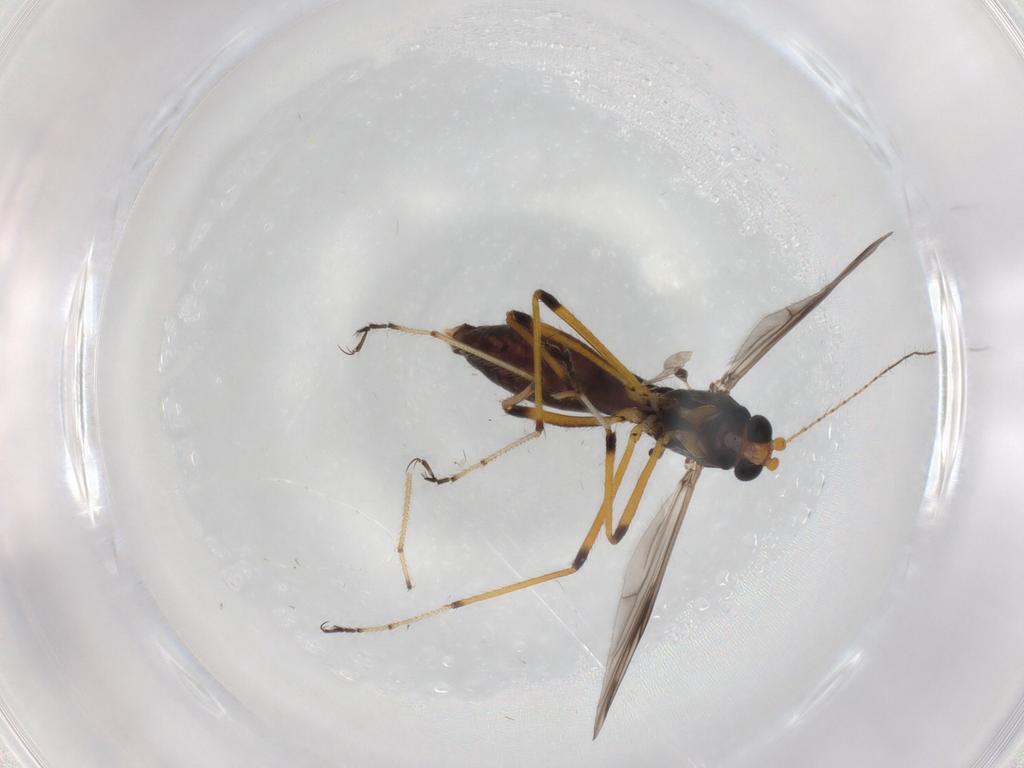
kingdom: Animalia
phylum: Arthropoda
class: Insecta
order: Diptera
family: Ceratopogonidae
